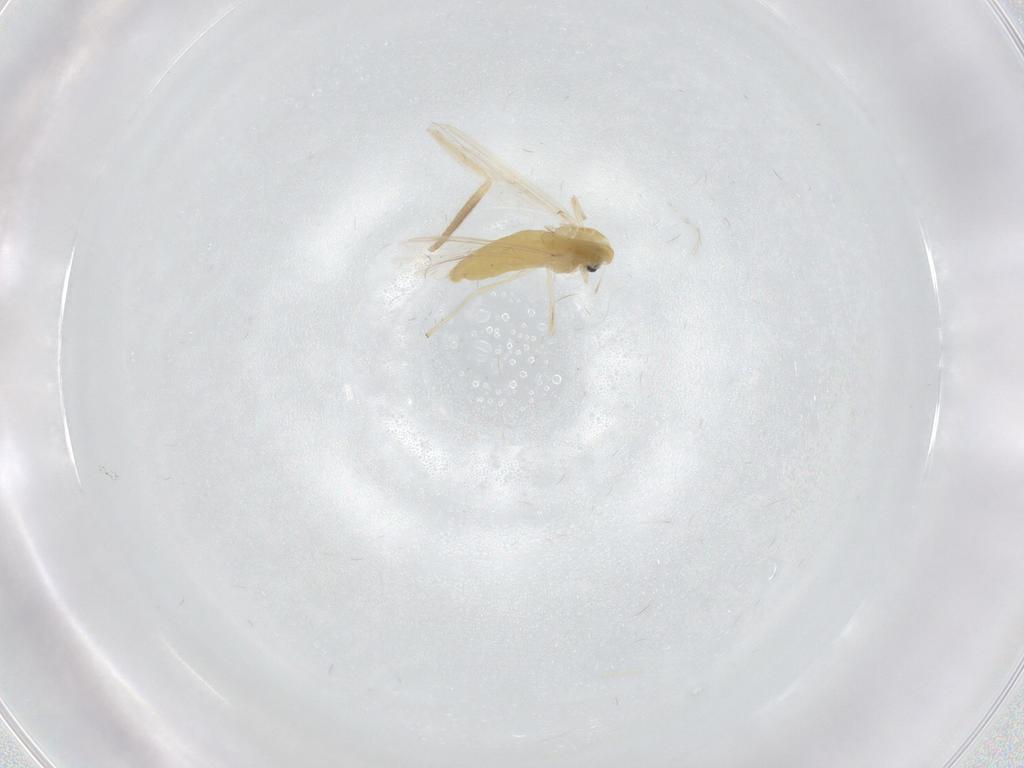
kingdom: Animalia
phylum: Arthropoda
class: Insecta
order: Diptera
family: Chironomidae
